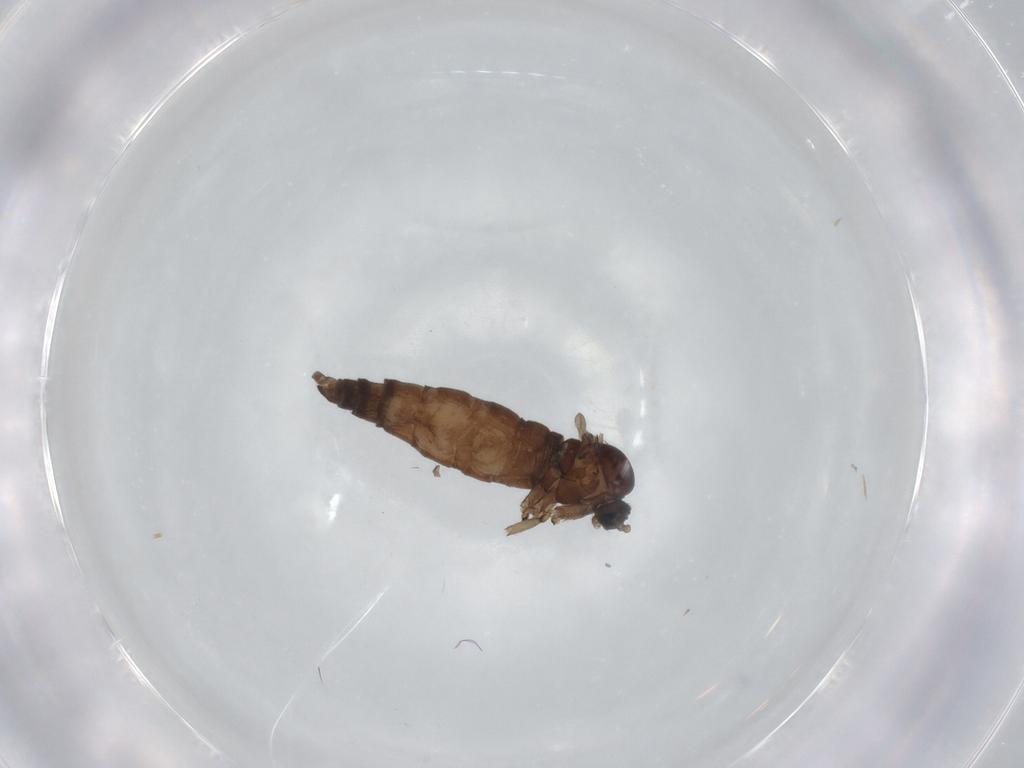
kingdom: Animalia
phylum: Arthropoda
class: Insecta
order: Diptera
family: Sciaridae
